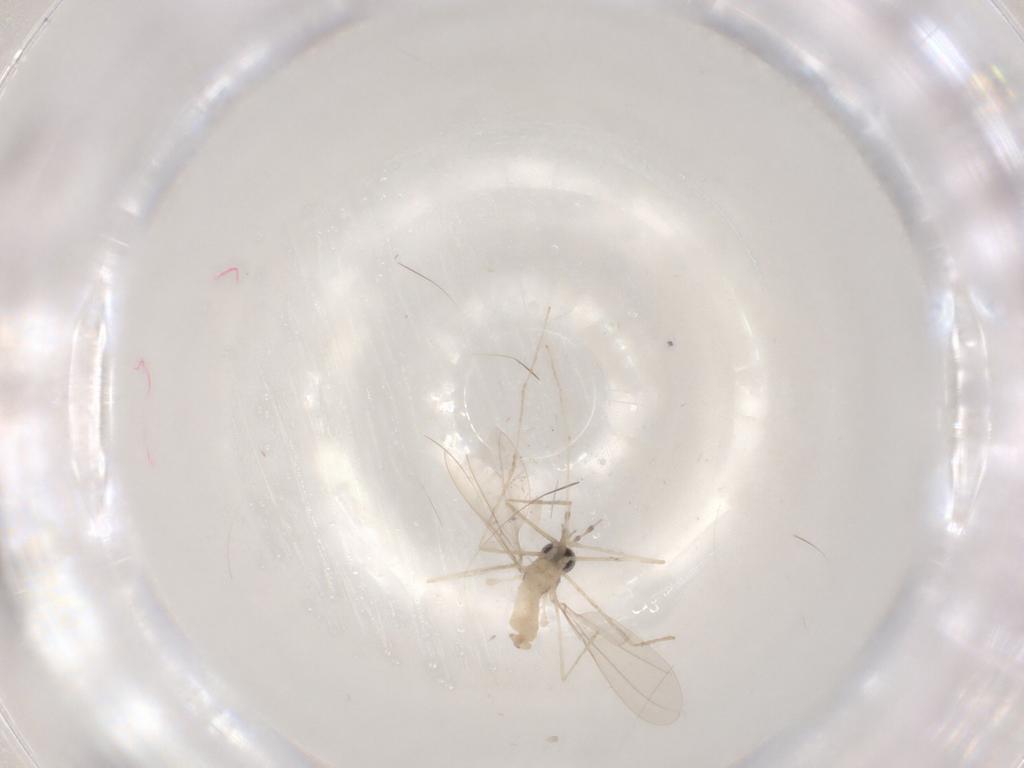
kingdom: Animalia
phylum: Arthropoda
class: Insecta
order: Diptera
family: Cecidomyiidae
